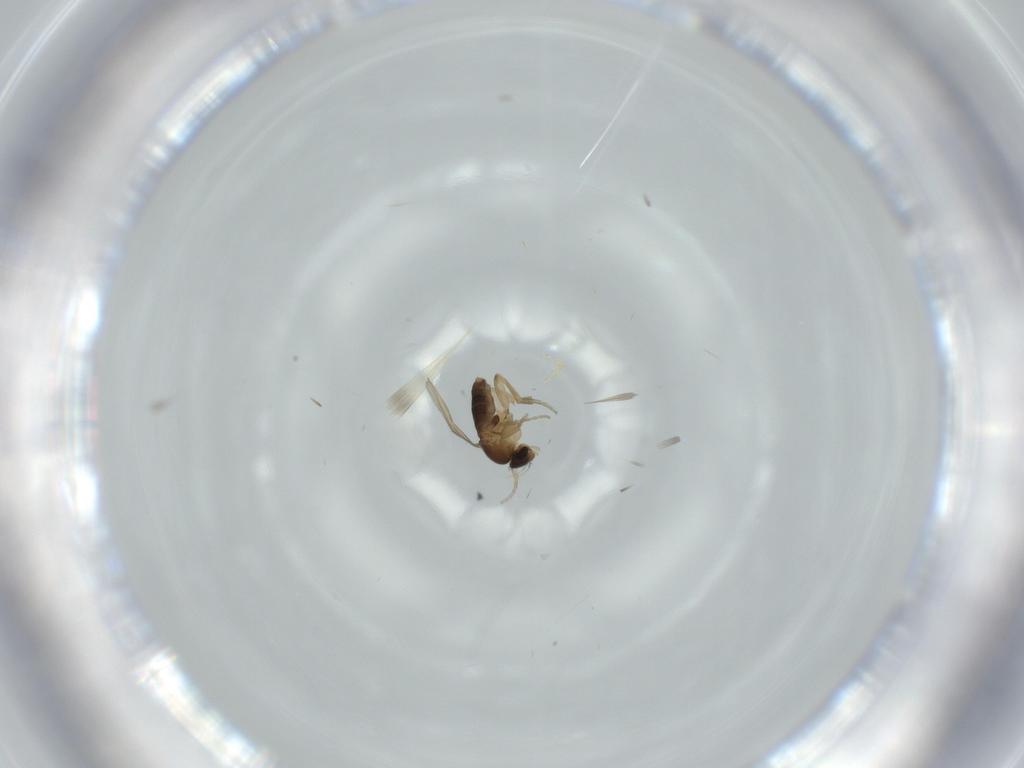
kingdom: Animalia
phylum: Arthropoda
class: Insecta
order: Diptera
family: Phoridae
